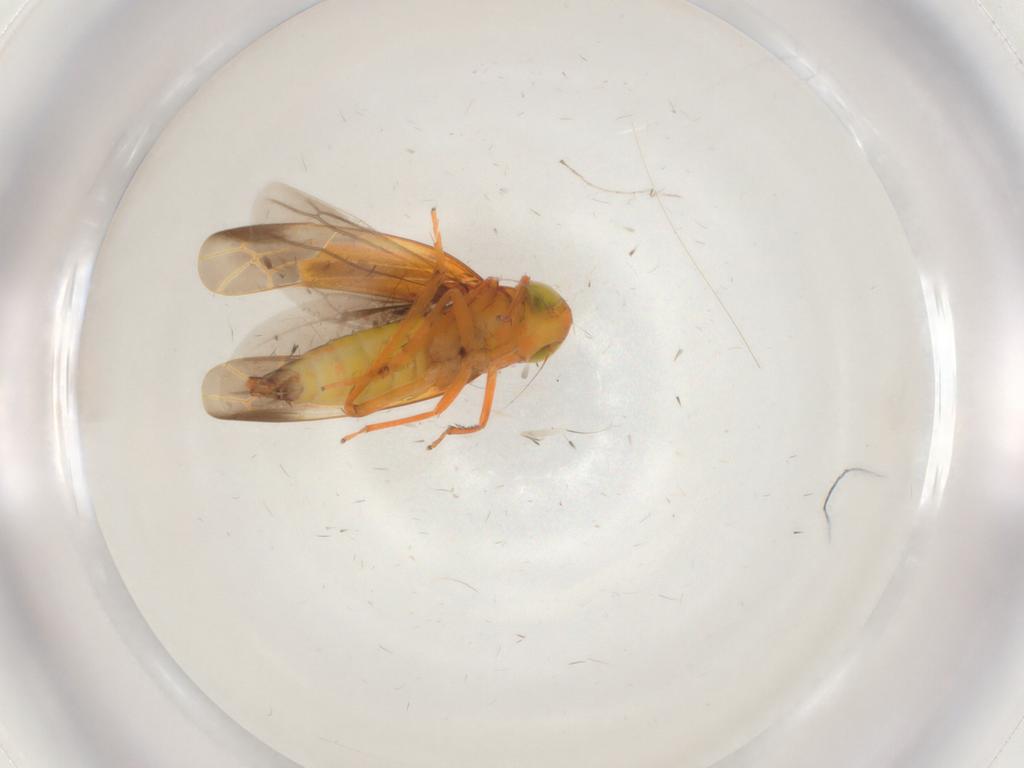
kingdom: Animalia
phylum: Arthropoda
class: Insecta
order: Hemiptera
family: Cicadellidae
